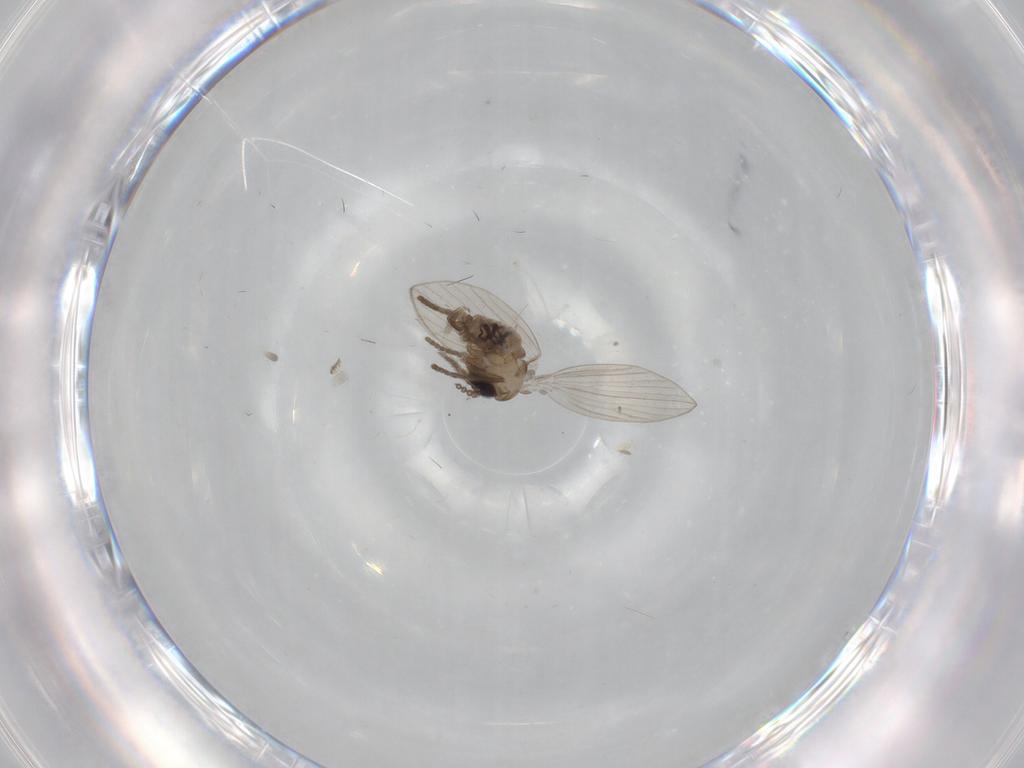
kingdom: Animalia
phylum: Arthropoda
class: Insecta
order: Diptera
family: Psychodidae
